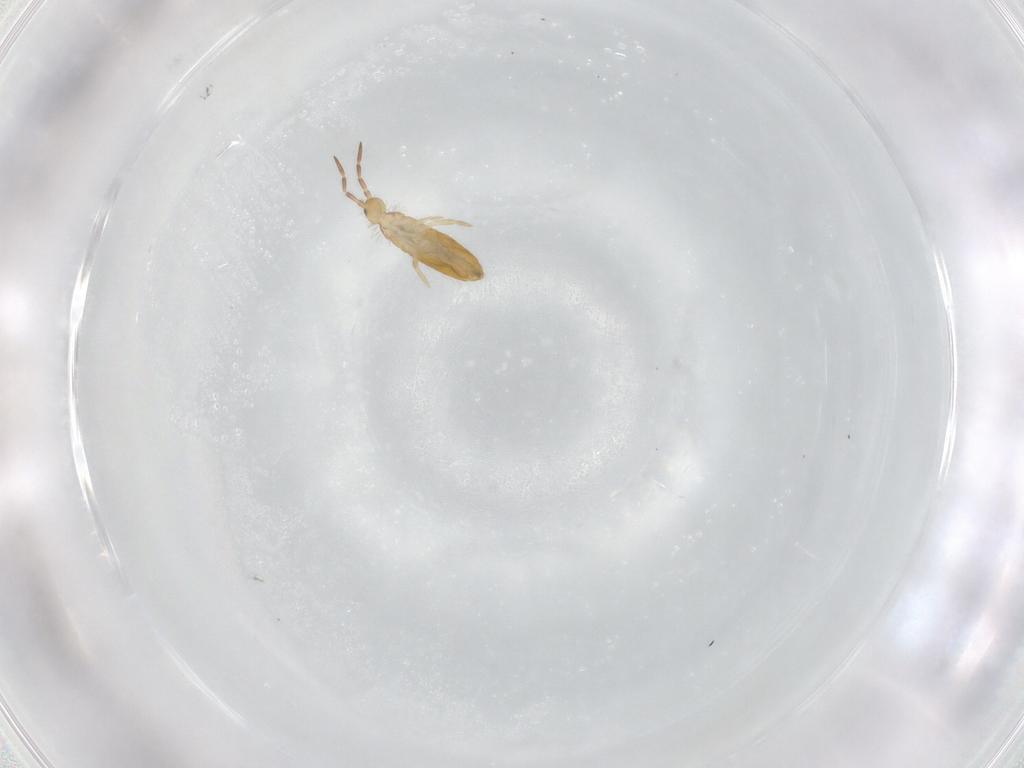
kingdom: Animalia
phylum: Arthropoda
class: Collembola
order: Entomobryomorpha
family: Entomobryidae
